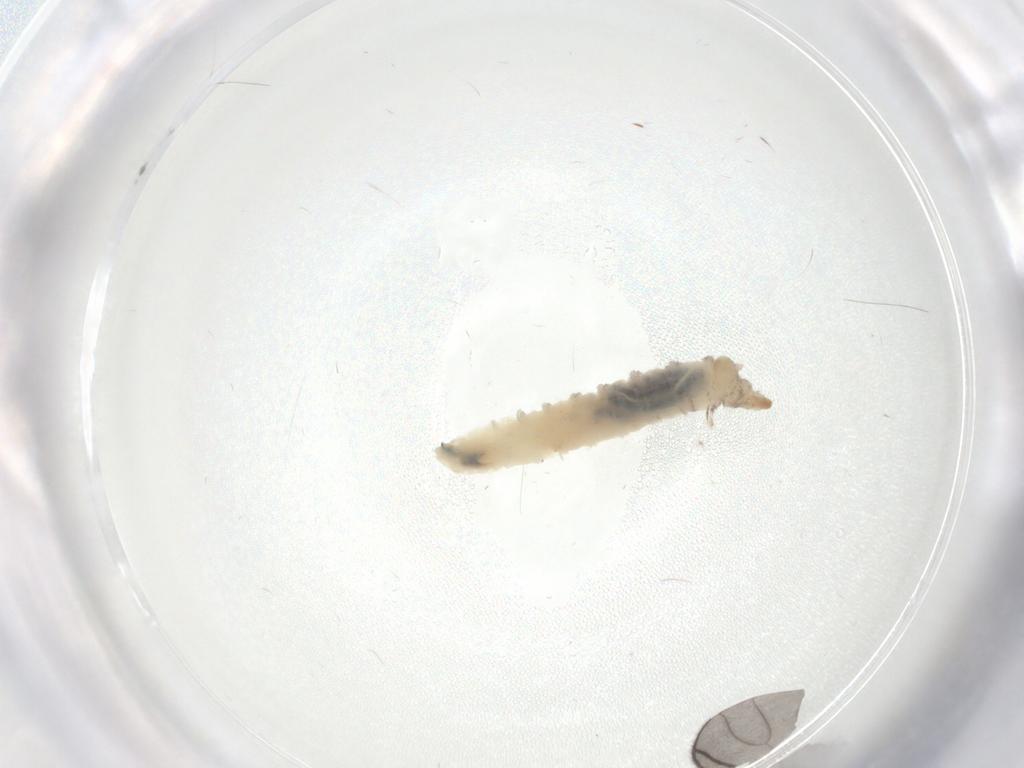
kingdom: Animalia
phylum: Arthropoda
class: Insecta
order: Diptera
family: Drosophilidae
